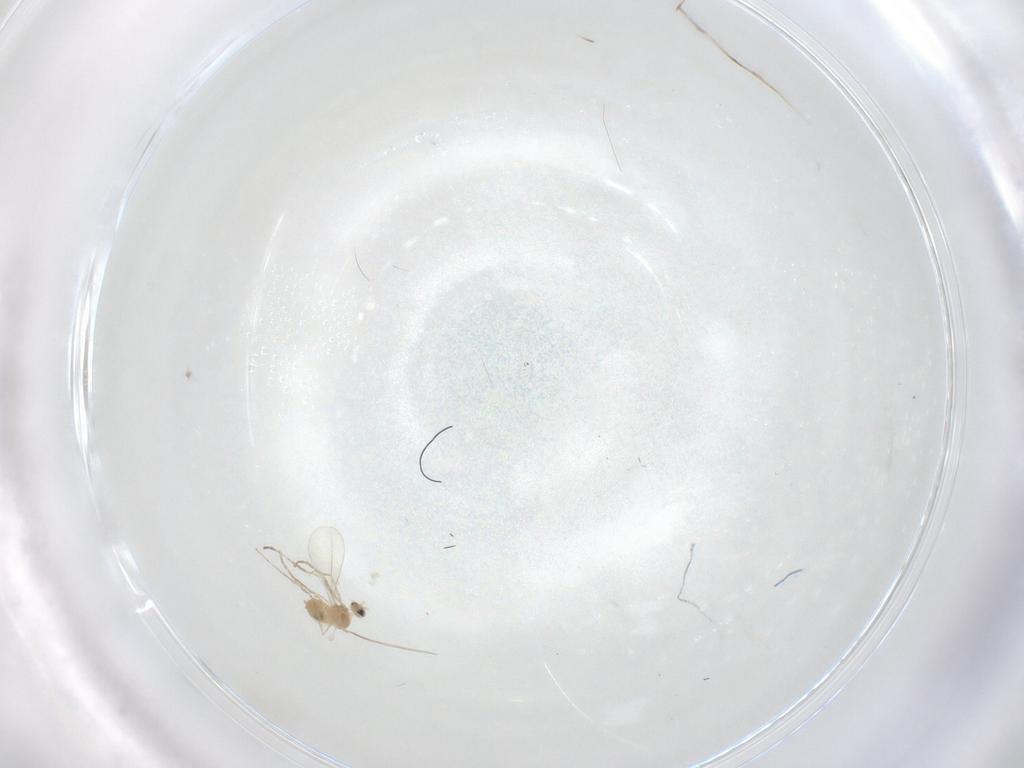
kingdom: Animalia
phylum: Arthropoda
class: Insecta
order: Diptera
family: Cecidomyiidae
